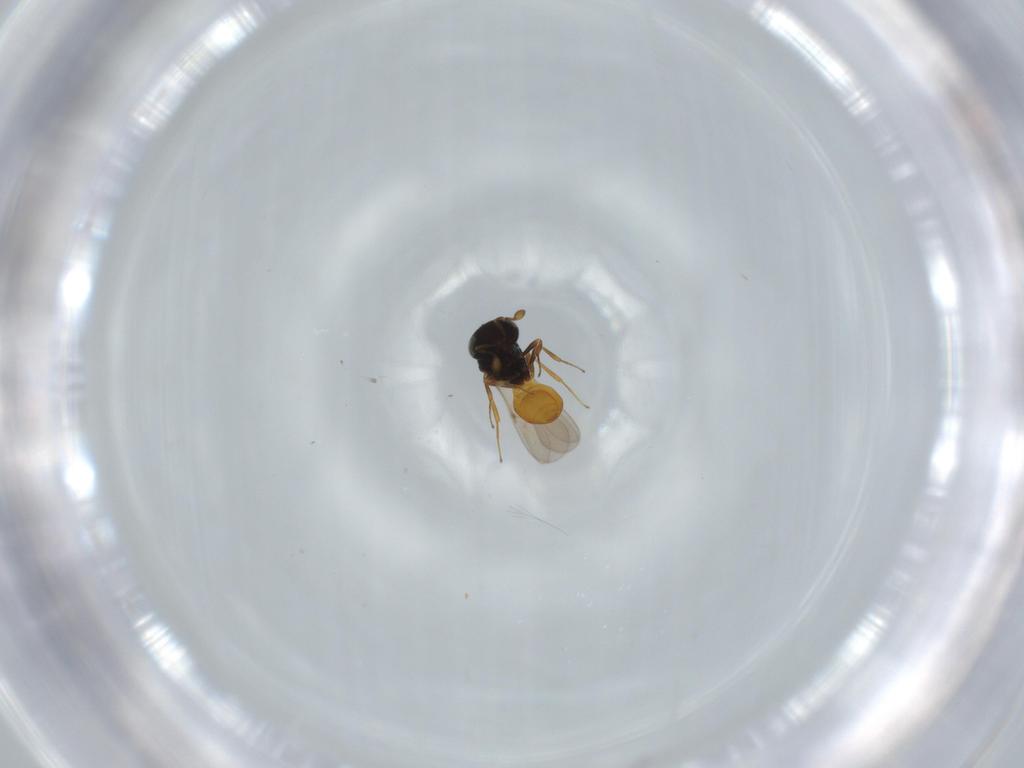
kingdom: Animalia
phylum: Arthropoda
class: Insecta
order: Hymenoptera
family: Scelionidae
